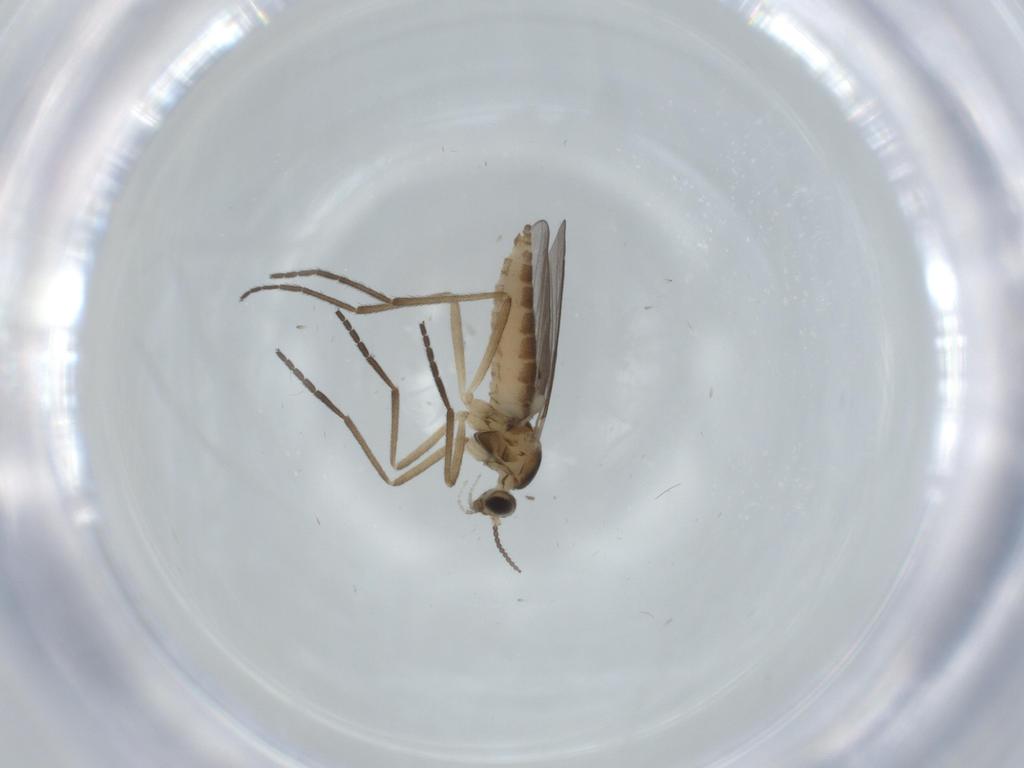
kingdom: Animalia
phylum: Arthropoda
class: Insecta
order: Diptera
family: Cecidomyiidae
